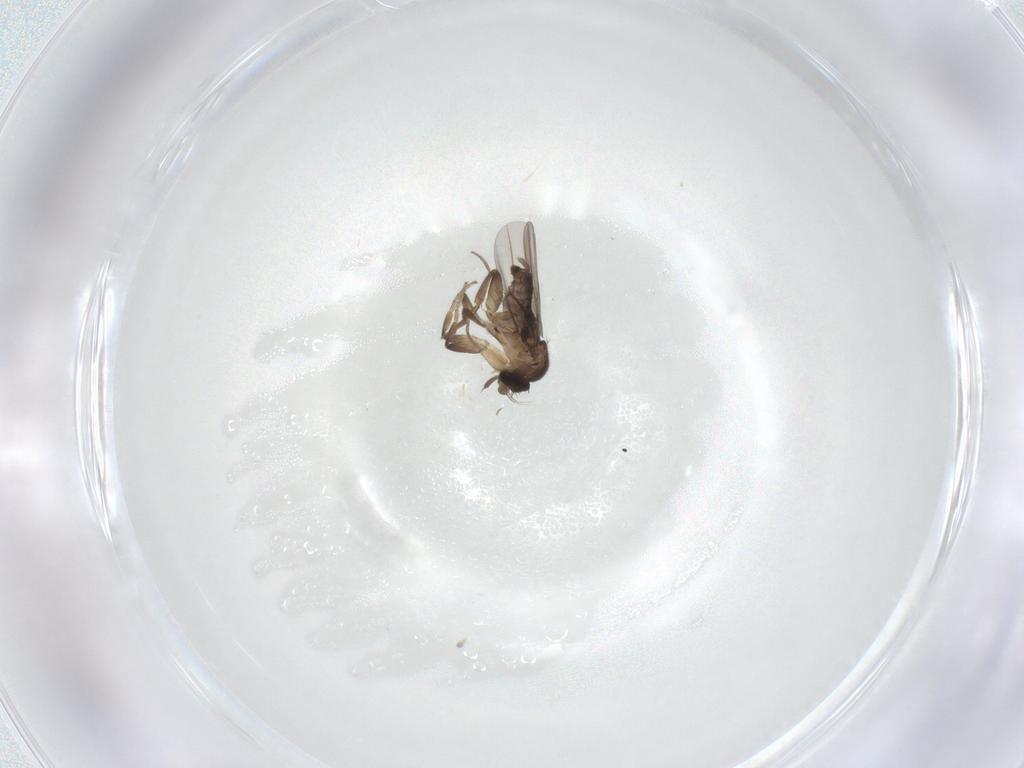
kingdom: Animalia
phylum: Arthropoda
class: Insecta
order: Diptera
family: Phoridae
